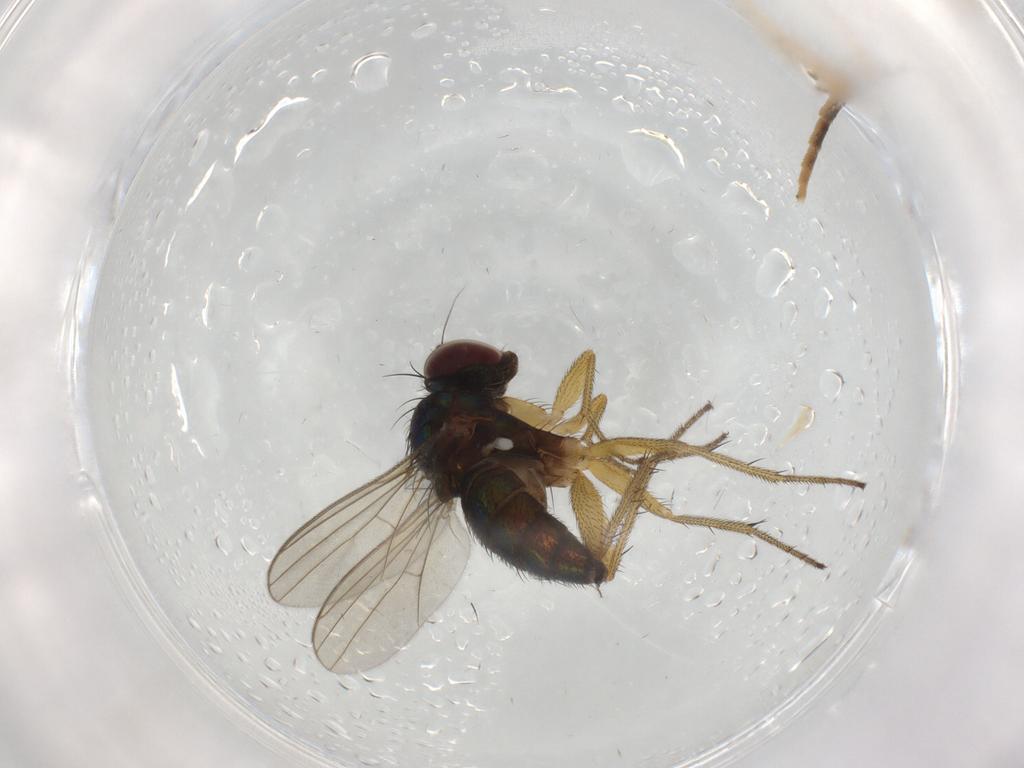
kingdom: Animalia
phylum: Arthropoda
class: Insecta
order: Diptera
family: Dolichopodidae
